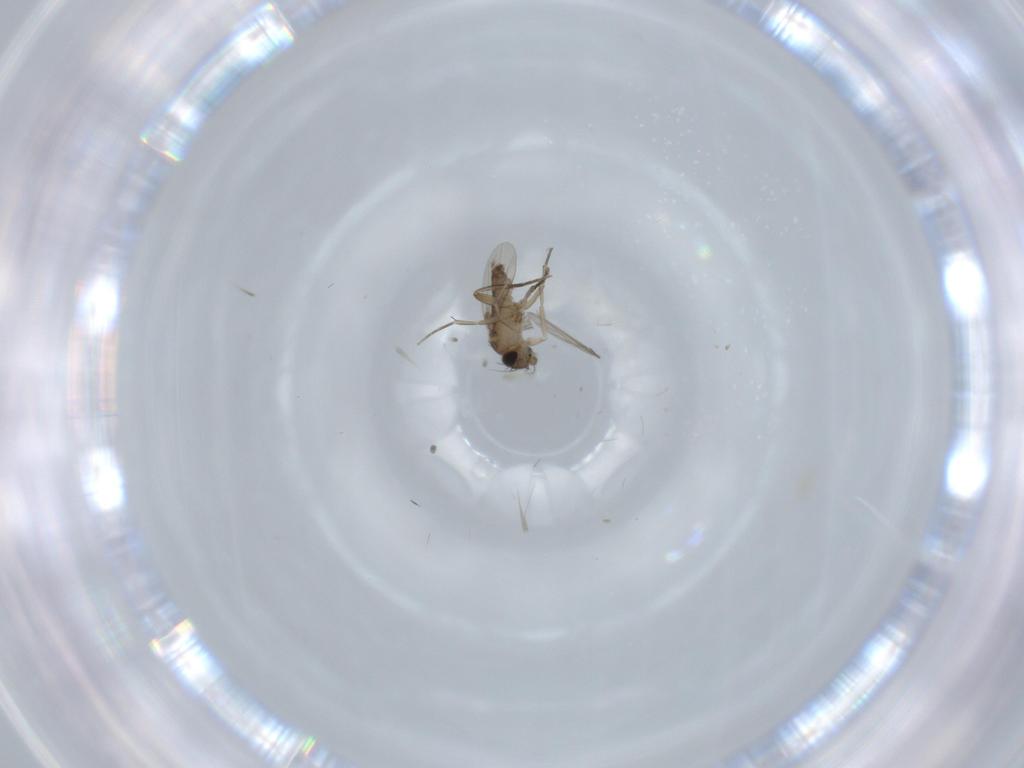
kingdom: Animalia
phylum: Arthropoda
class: Insecta
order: Diptera
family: Phoridae
